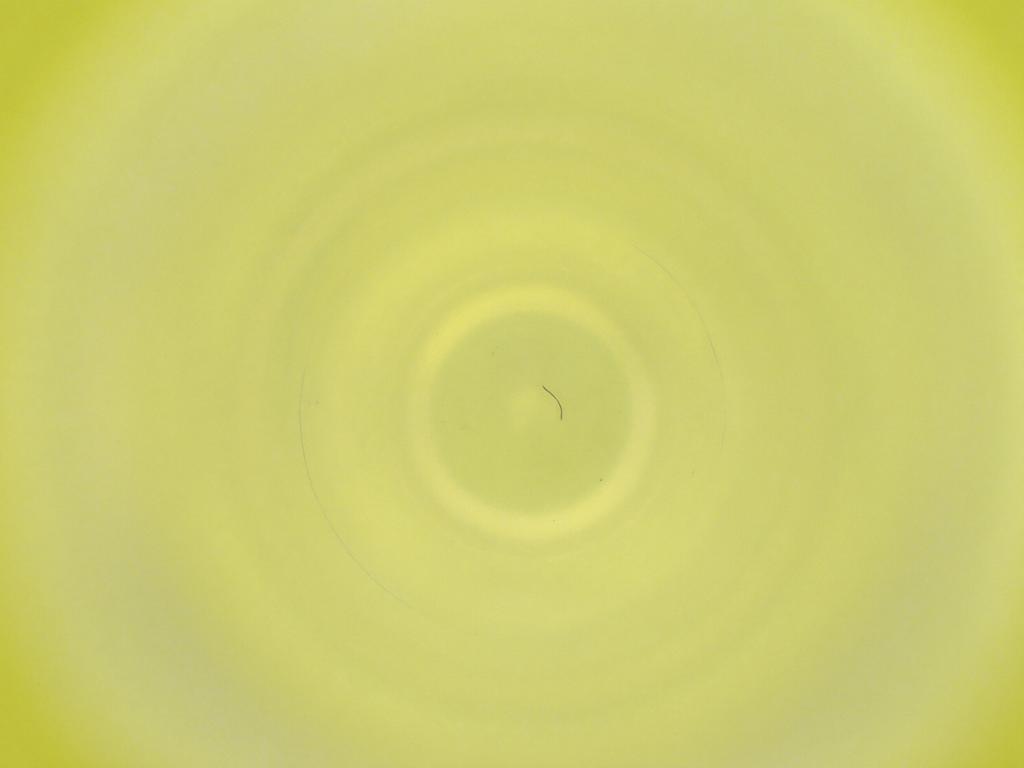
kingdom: Animalia
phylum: Arthropoda
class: Insecta
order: Diptera
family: Cecidomyiidae
